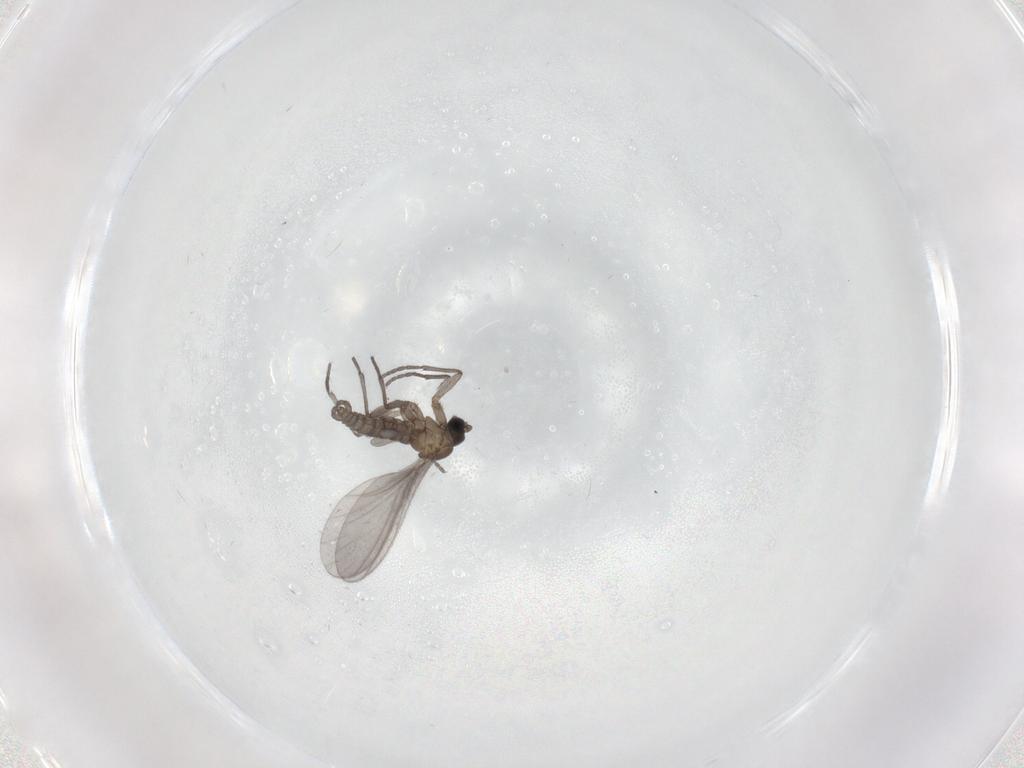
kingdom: Animalia
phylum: Arthropoda
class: Insecta
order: Diptera
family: Sciaridae
